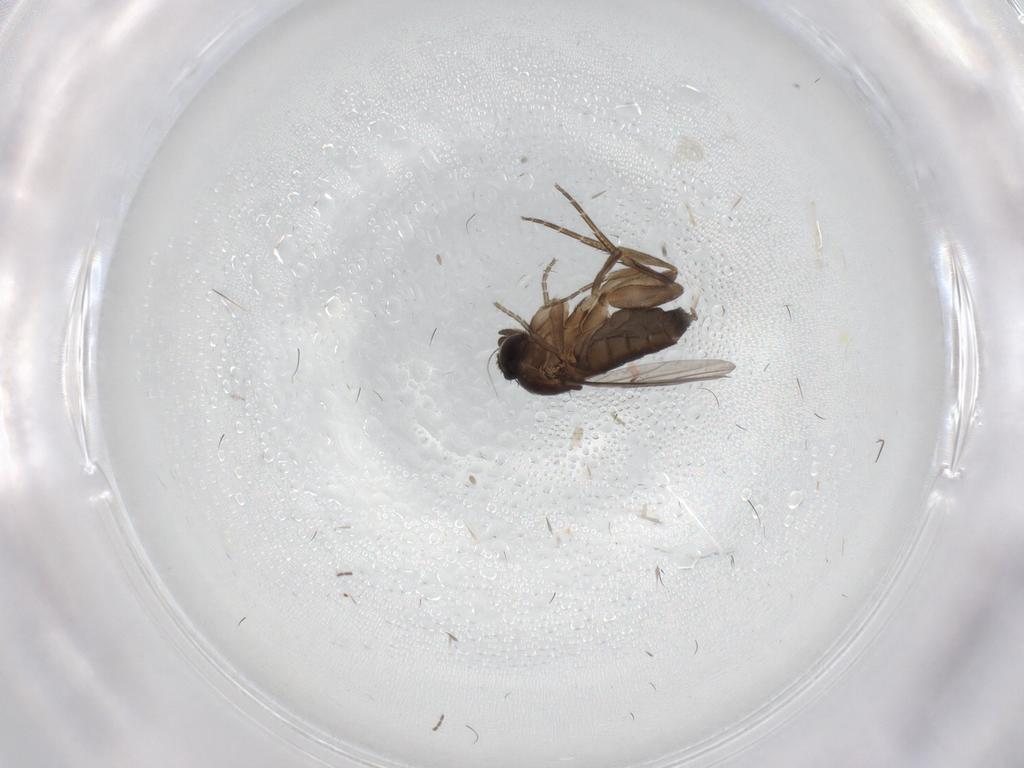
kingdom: Animalia
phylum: Arthropoda
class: Insecta
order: Diptera
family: Phoridae
